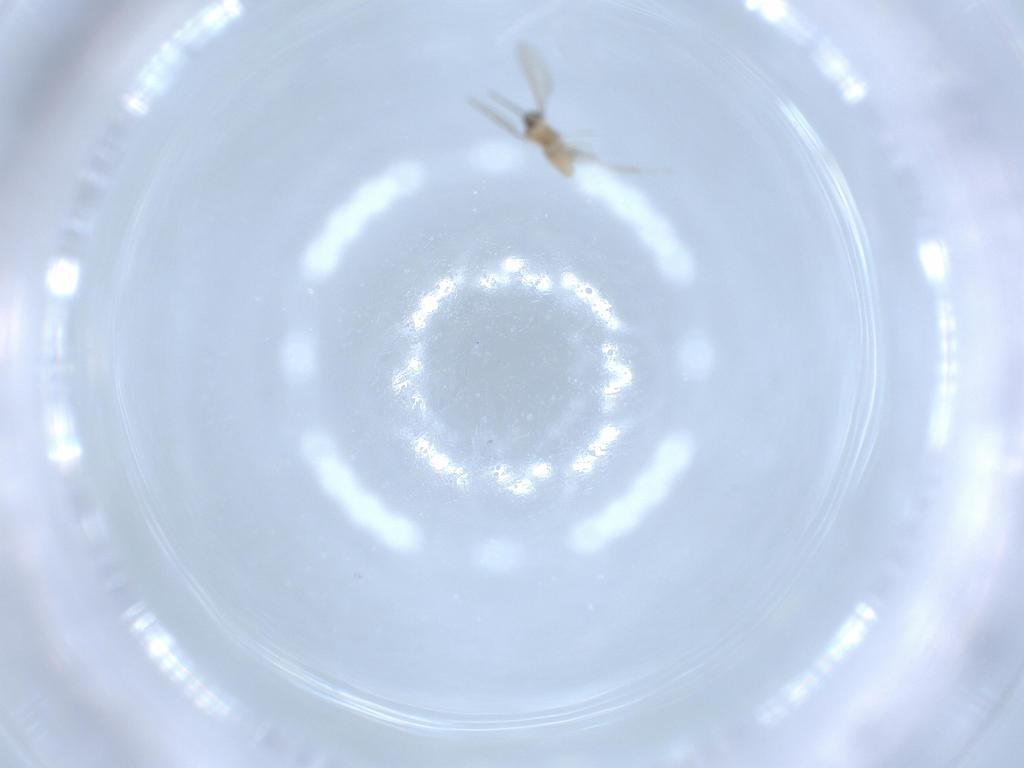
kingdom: Animalia
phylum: Arthropoda
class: Insecta
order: Diptera
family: Cecidomyiidae
